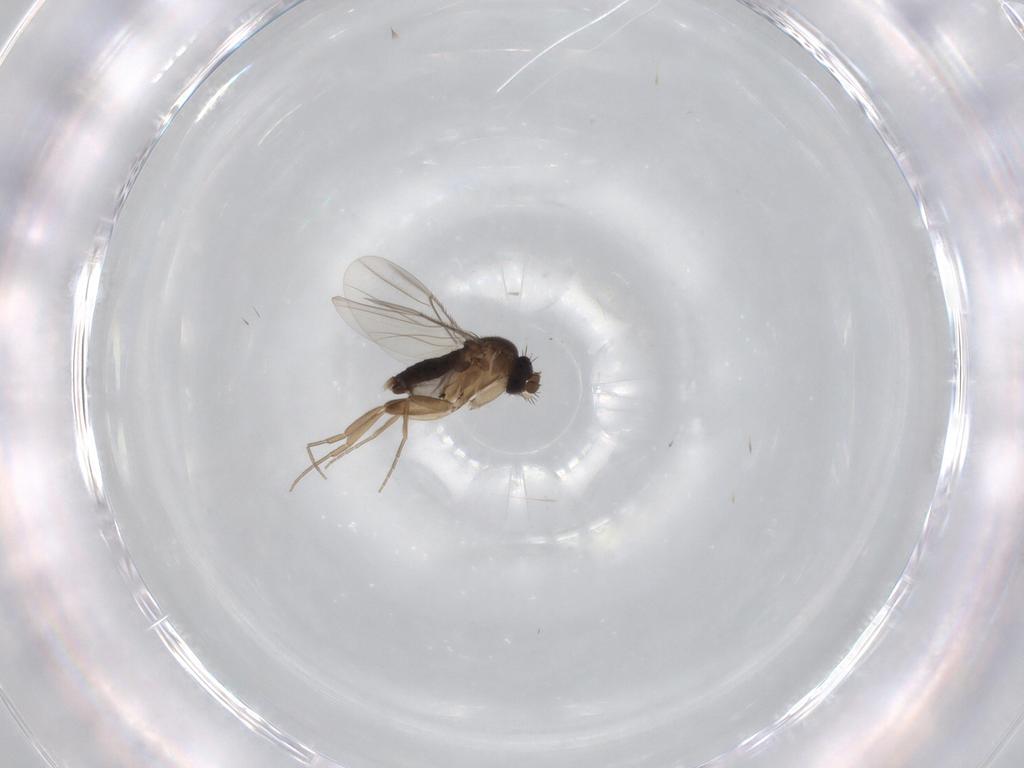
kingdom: Animalia
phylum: Arthropoda
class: Insecta
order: Diptera
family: Phoridae
